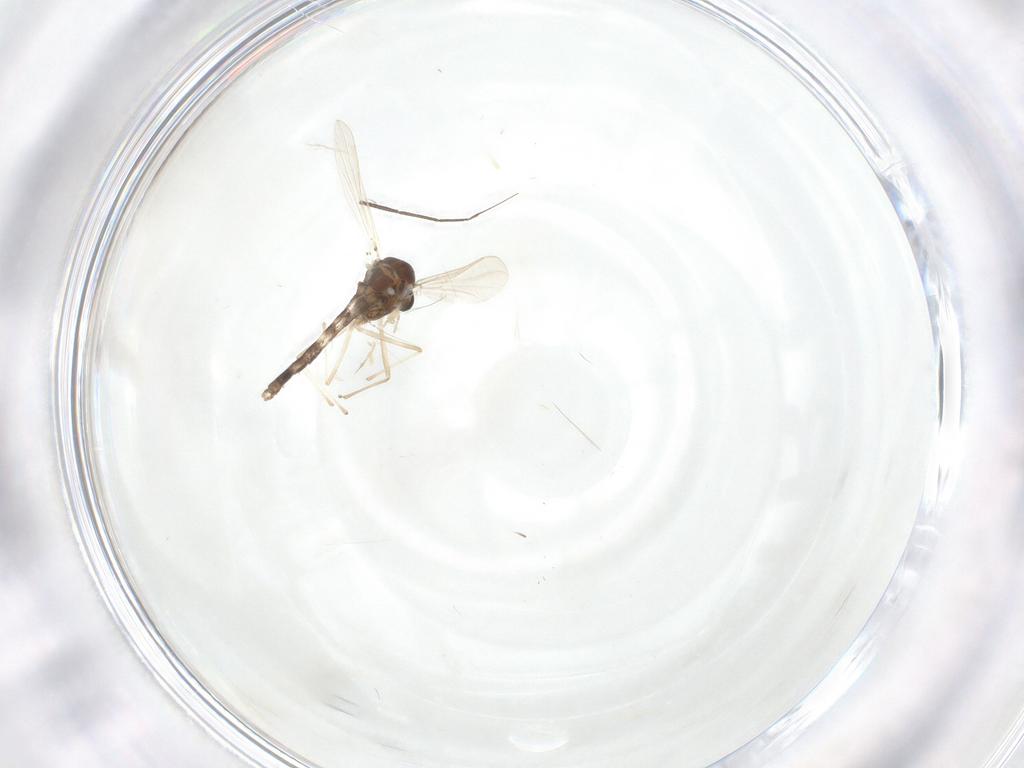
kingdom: Animalia
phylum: Arthropoda
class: Insecta
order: Diptera
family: Chironomidae
